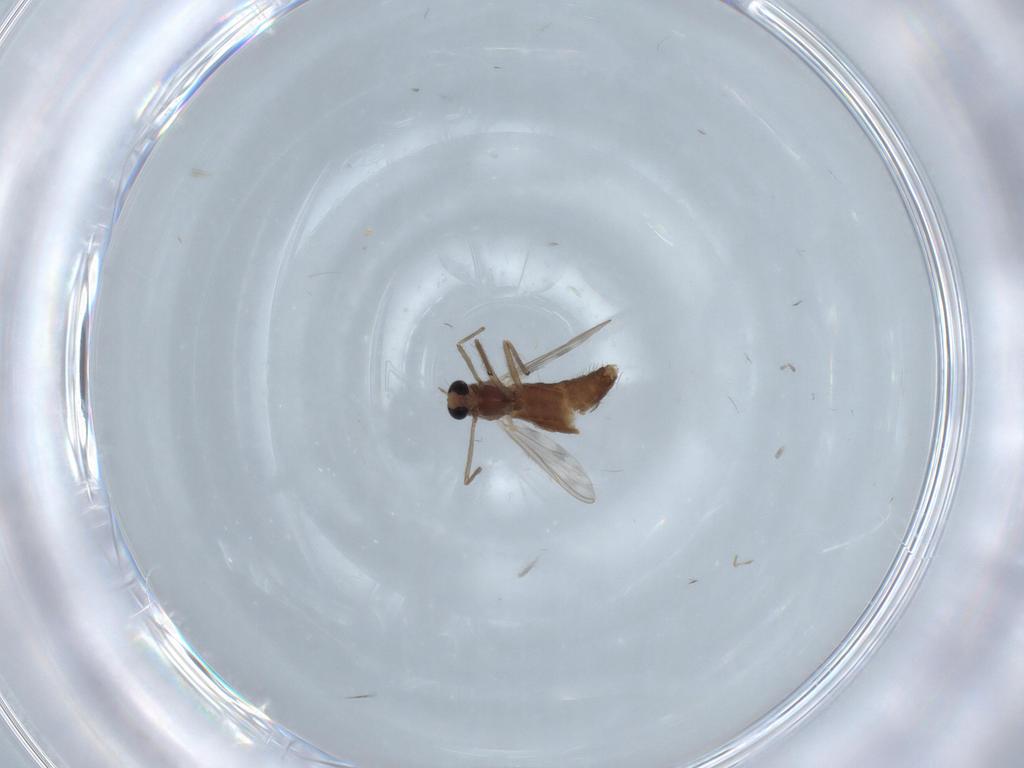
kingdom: Animalia
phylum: Arthropoda
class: Insecta
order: Diptera
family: Chironomidae
